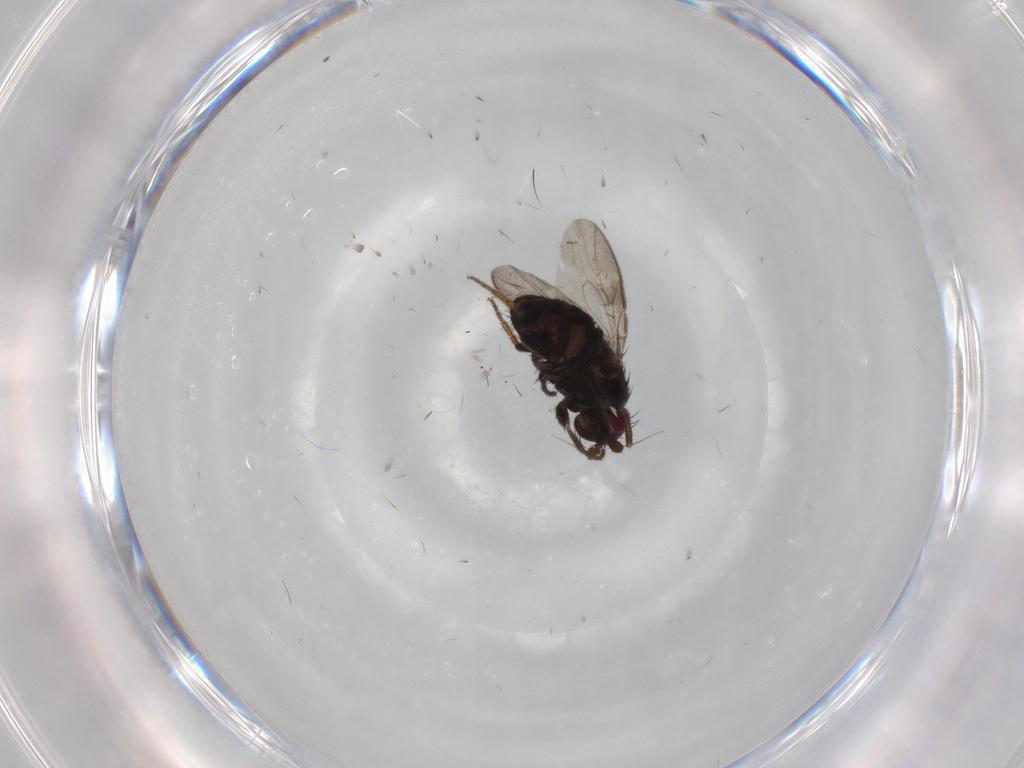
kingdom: Animalia
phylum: Arthropoda
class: Insecta
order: Diptera
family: Sphaeroceridae
